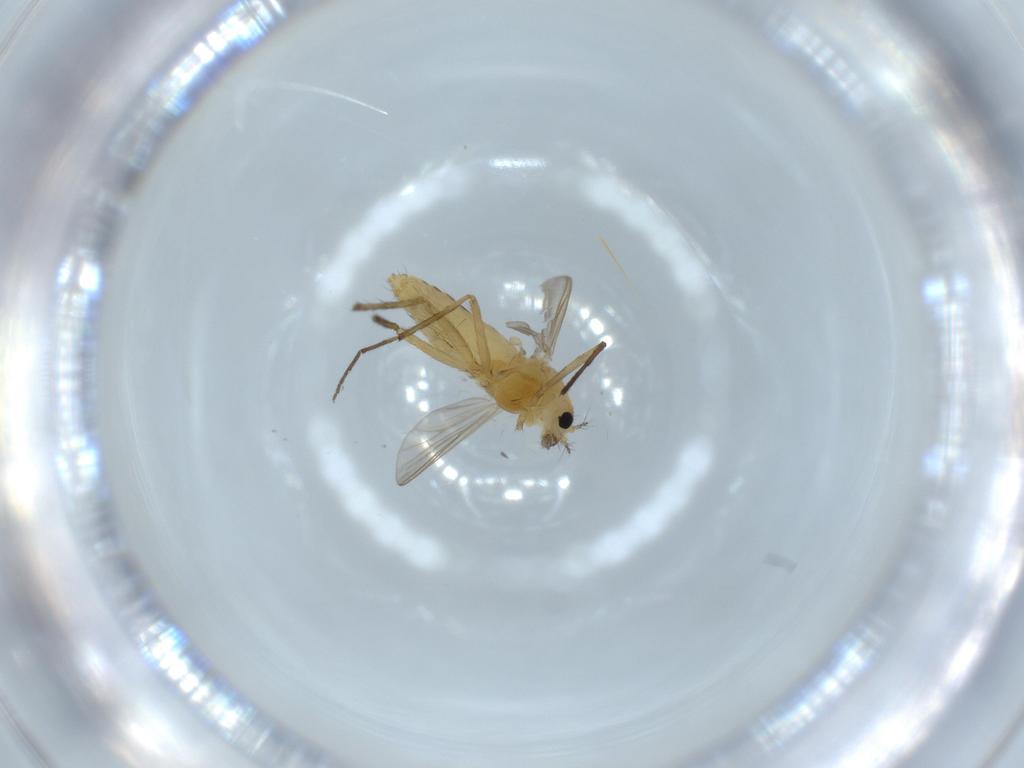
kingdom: Animalia
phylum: Arthropoda
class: Insecta
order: Diptera
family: Chironomidae
